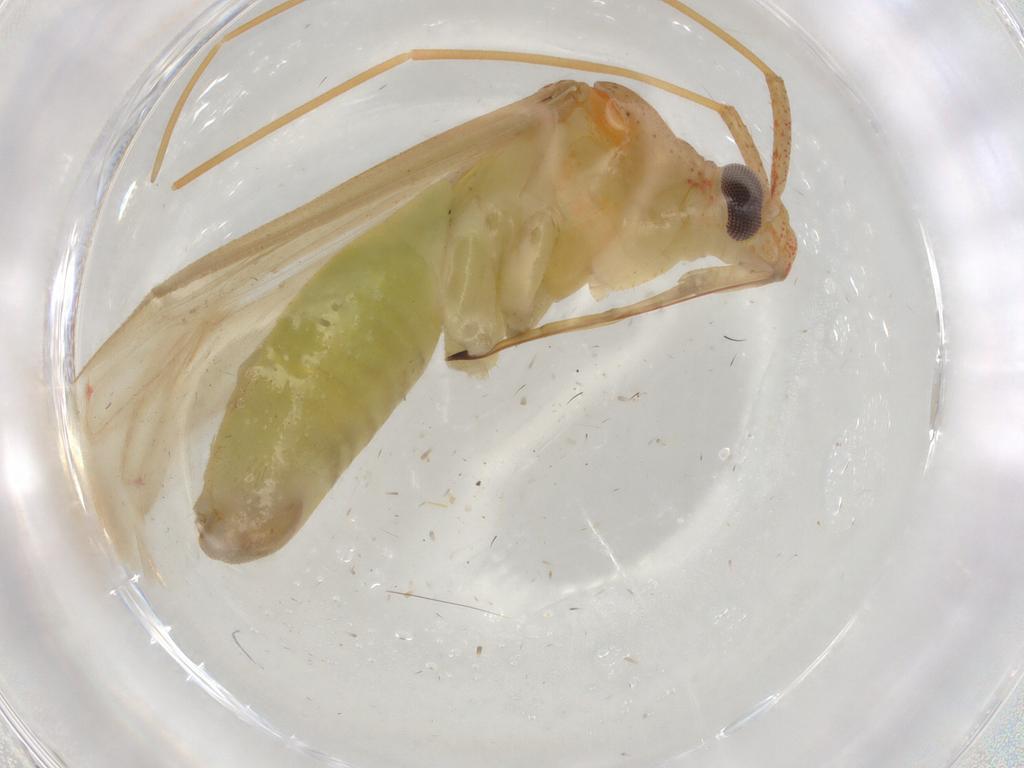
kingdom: Animalia
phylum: Arthropoda
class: Insecta
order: Hemiptera
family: Miridae
